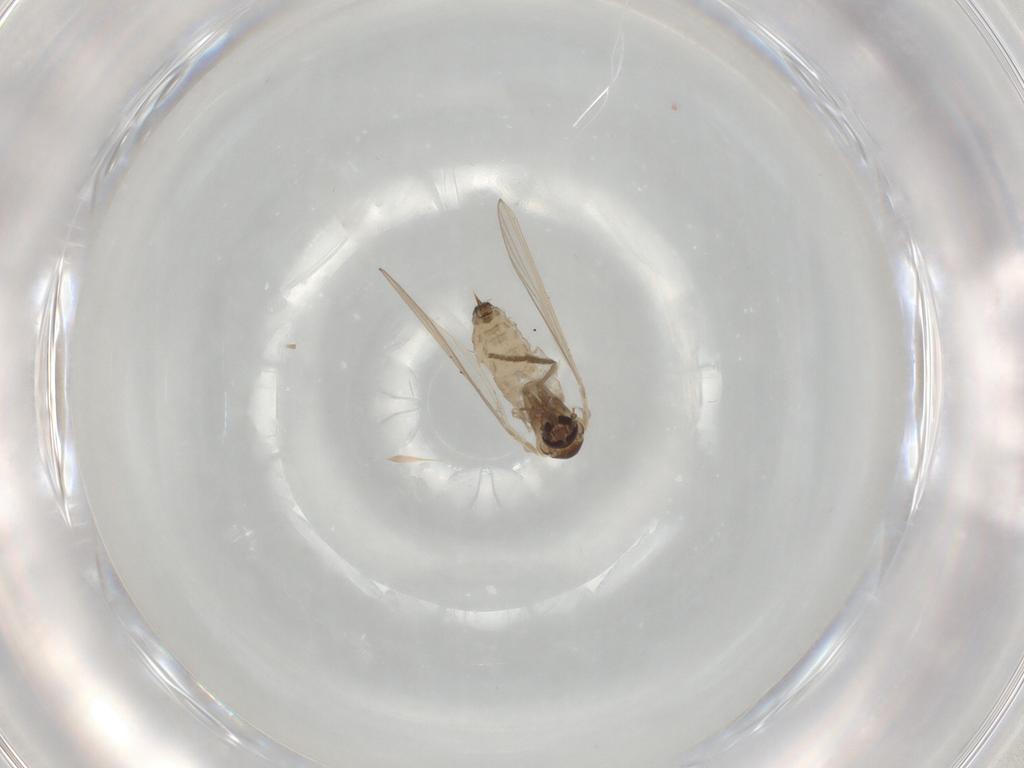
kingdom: Animalia
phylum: Arthropoda
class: Insecta
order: Diptera
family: Psychodidae
